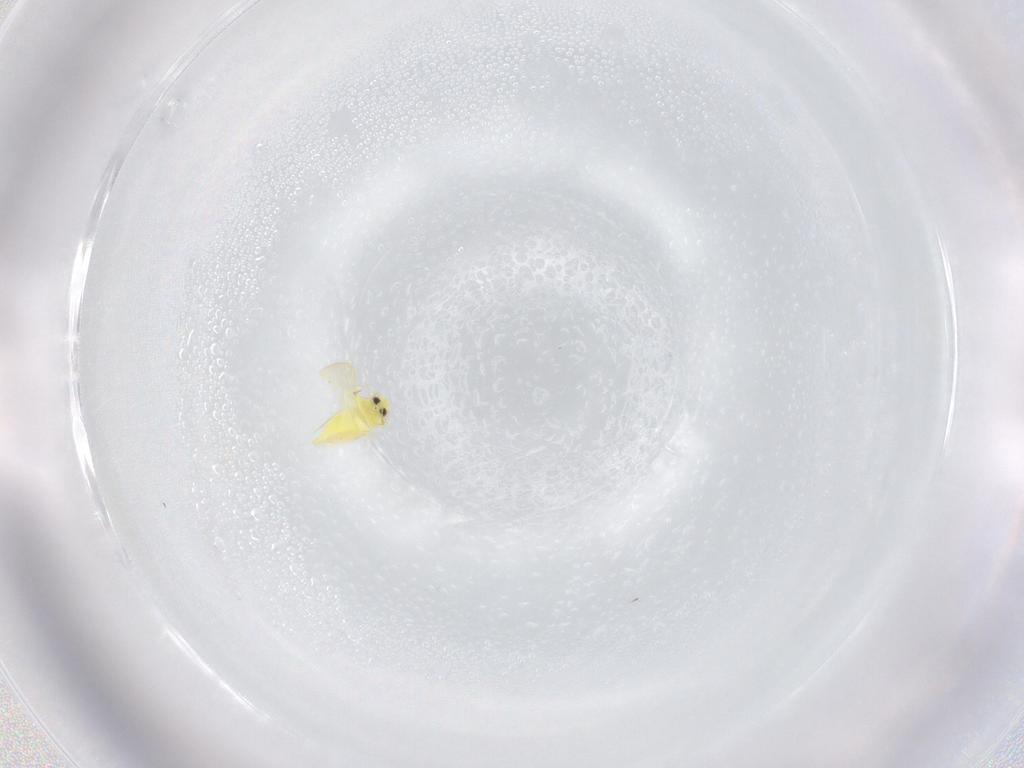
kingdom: Animalia
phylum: Arthropoda
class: Insecta
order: Hemiptera
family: Aleyrodidae
